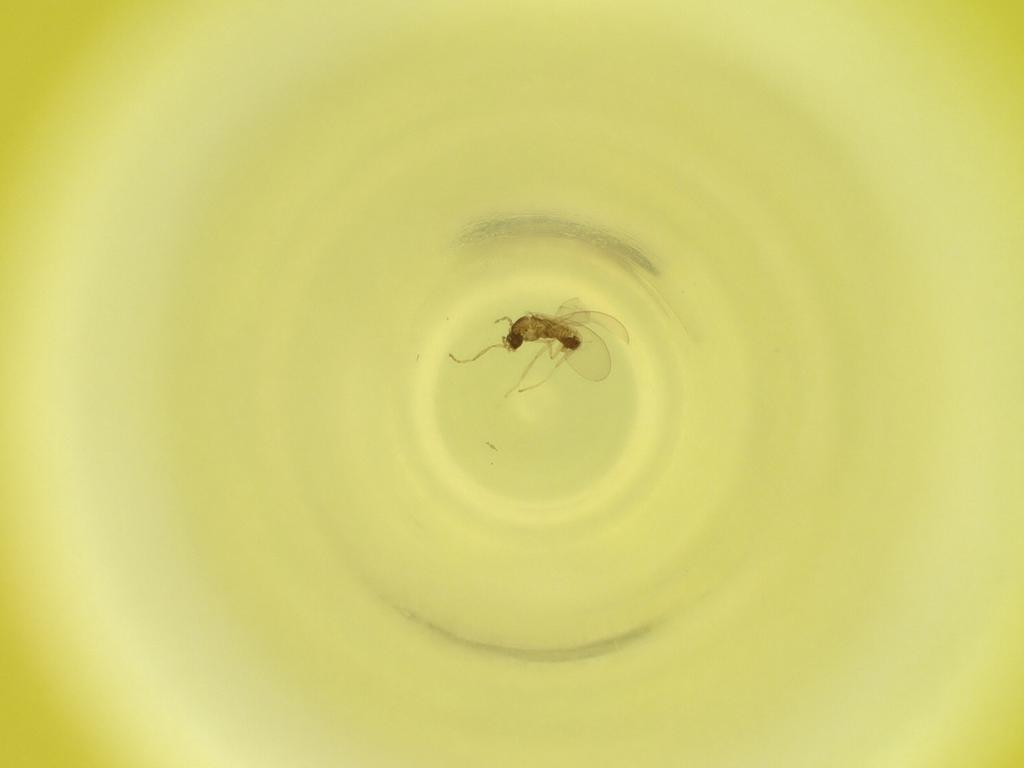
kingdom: Animalia
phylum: Arthropoda
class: Insecta
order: Diptera
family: Cecidomyiidae
